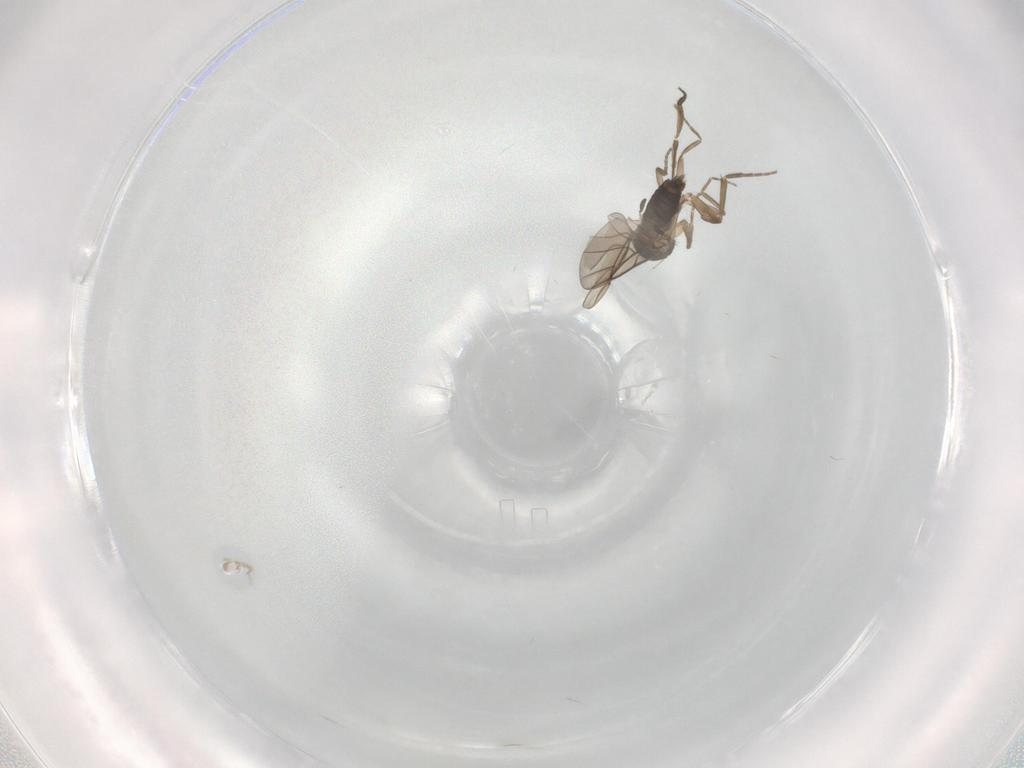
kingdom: Animalia
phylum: Arthropoda
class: Insecta
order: Diptera
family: Phoridae
